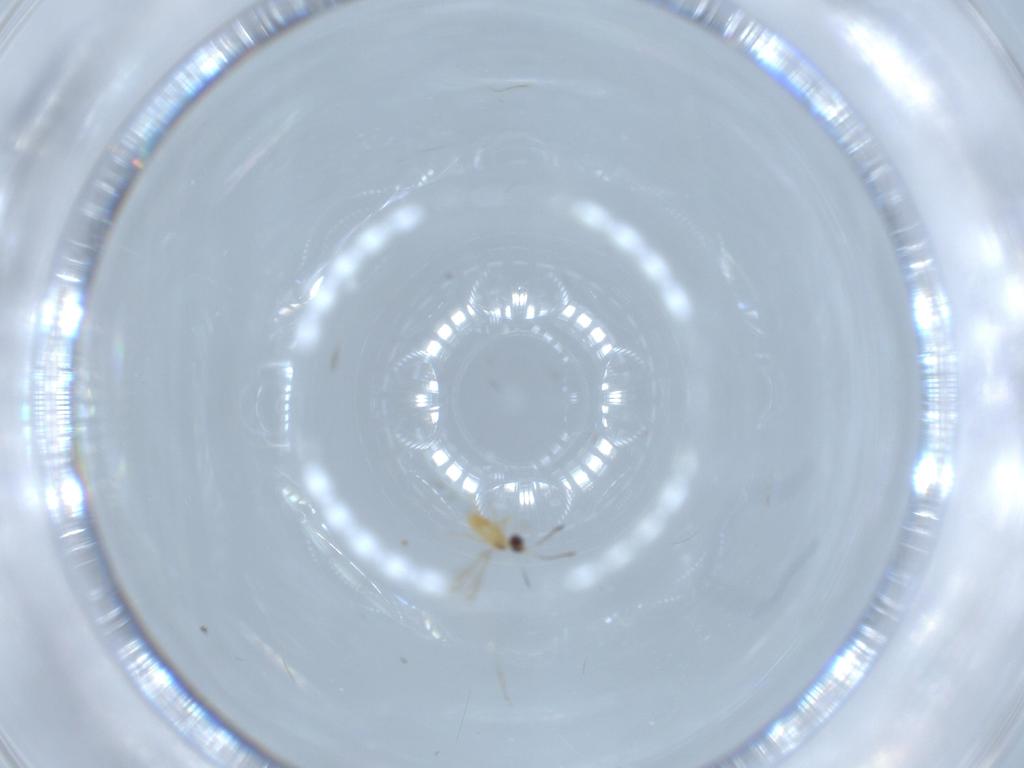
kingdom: Animalia
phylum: Arthropoda
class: Insecta
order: Hymenoptera
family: Mymaridae
